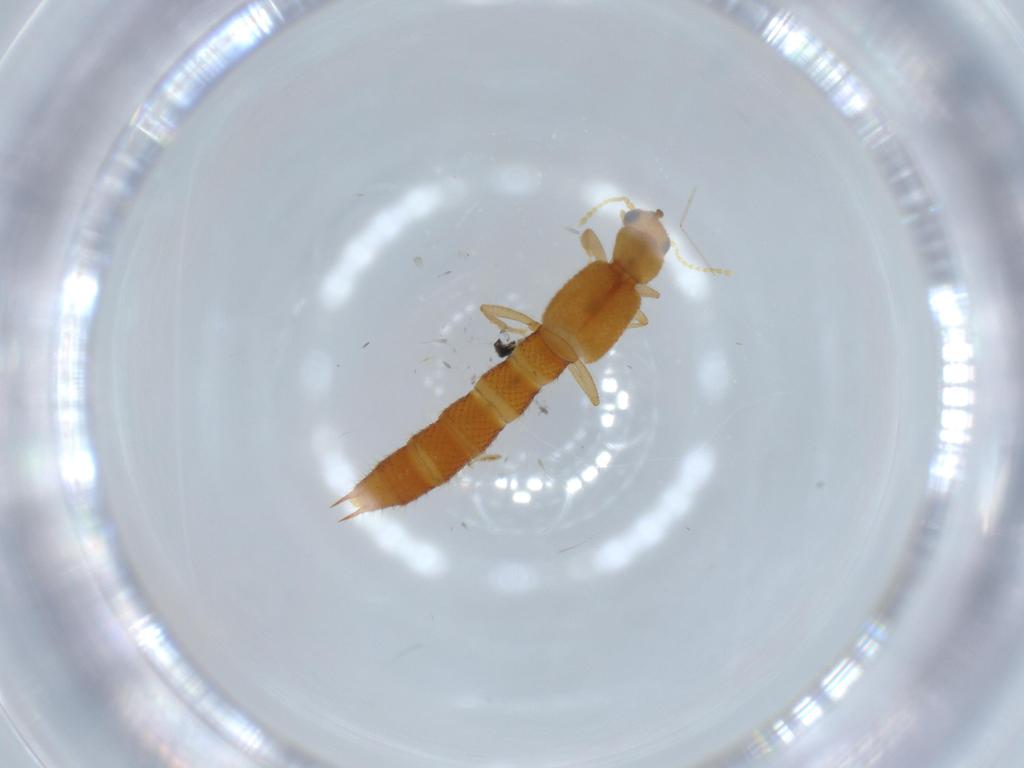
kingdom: Animalia
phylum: Arthropoda
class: Insecta
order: Coleoptera
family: Staphylinidae
